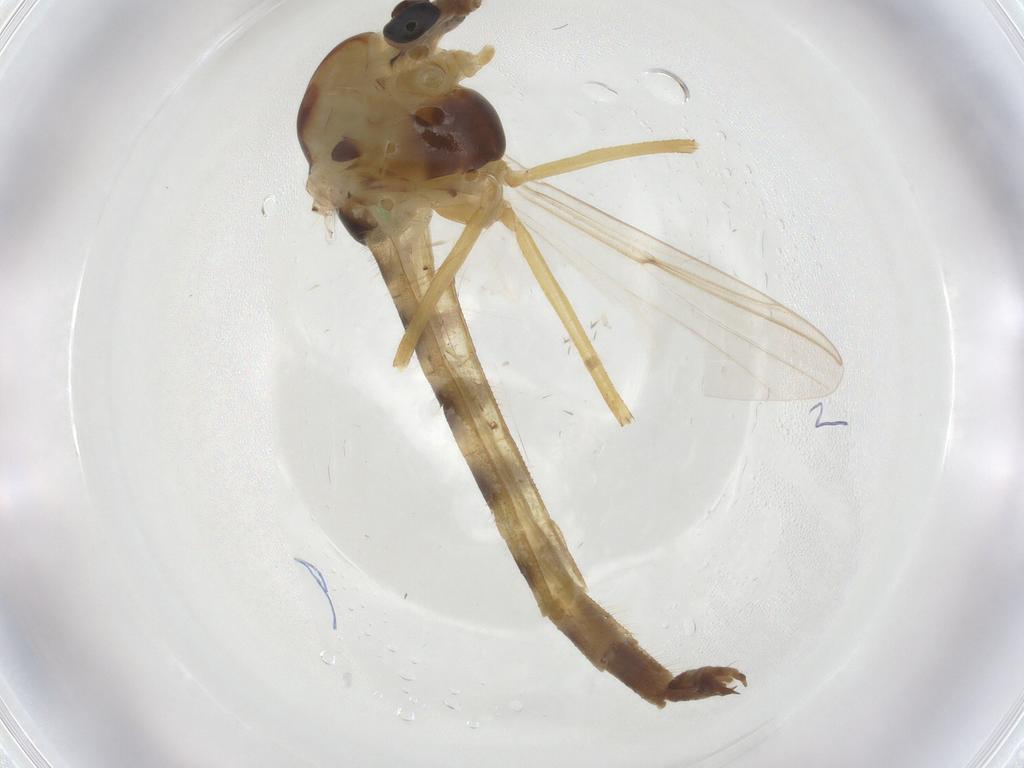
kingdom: Animalia
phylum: Arthropoda
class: Insecta
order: Diptera
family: Chironomidae
